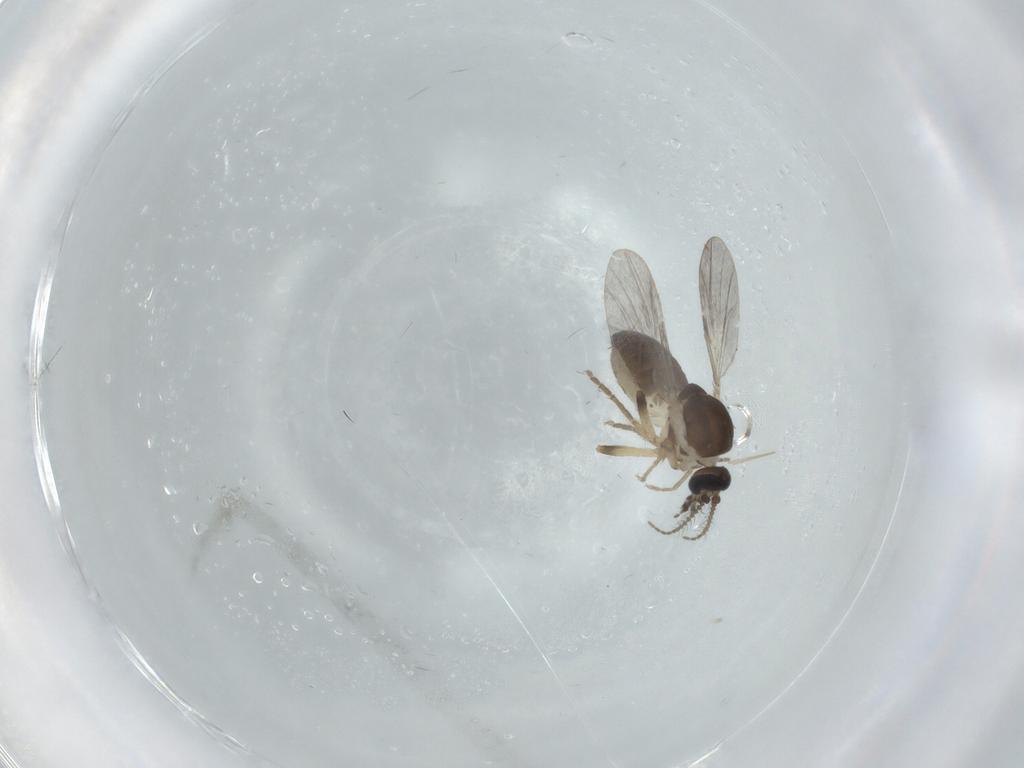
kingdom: Animalia
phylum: Arthropoda
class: Insecta
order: Diptera
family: Ceratopogonidae
